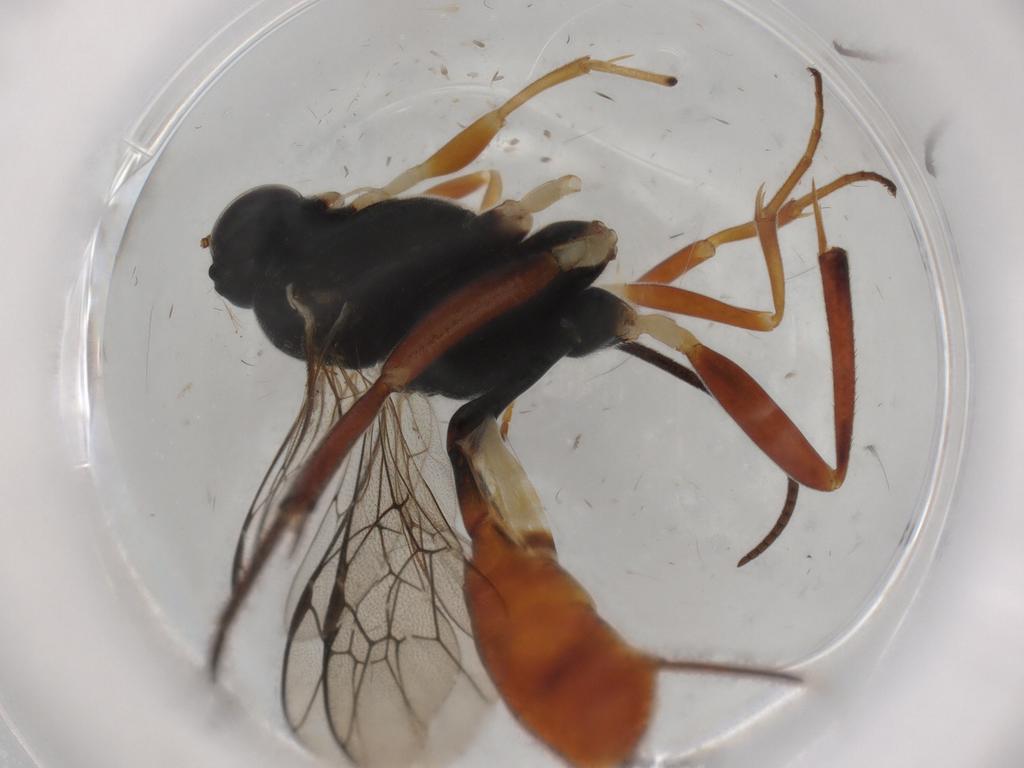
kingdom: Animalia
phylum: Arthropoda
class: Insecta
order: Hymenoptera
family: Ichneumonidae
